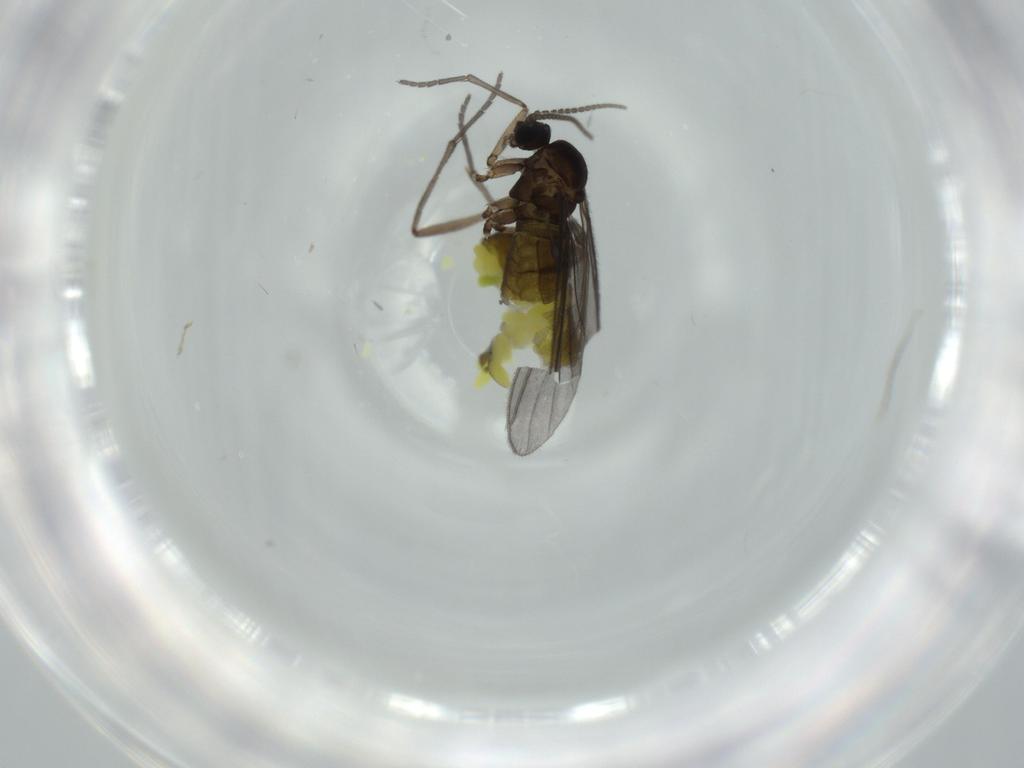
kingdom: Animalia
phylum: Arthropoda
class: Insecta
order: Diptera
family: Sciaridae
